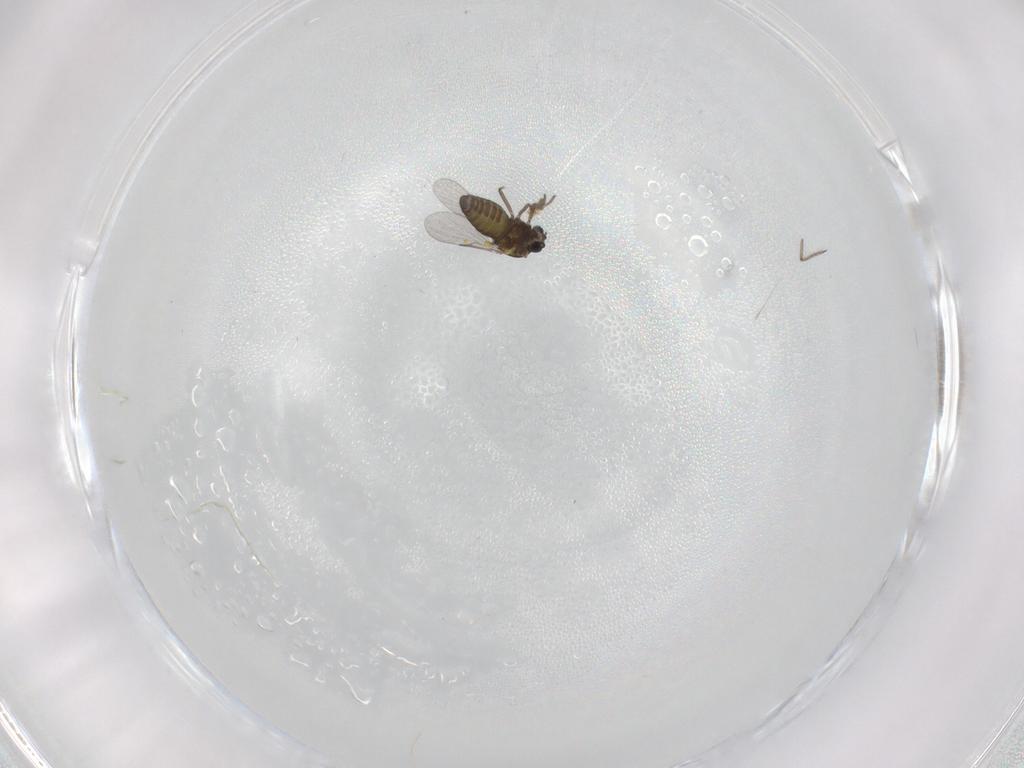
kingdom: Animalia
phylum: Arthropoda
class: Insecta
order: Diptera
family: Ceratopogonidae
